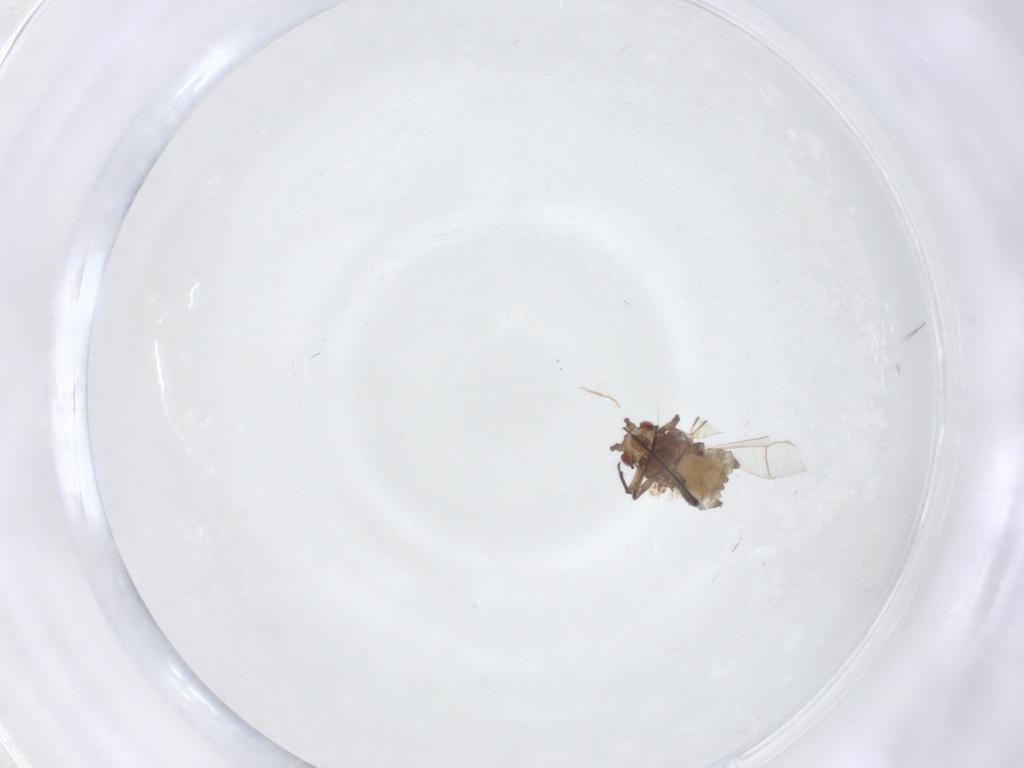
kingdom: Animalia
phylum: Arthropoda
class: Insecta
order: Hemiptera
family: Aphididae
